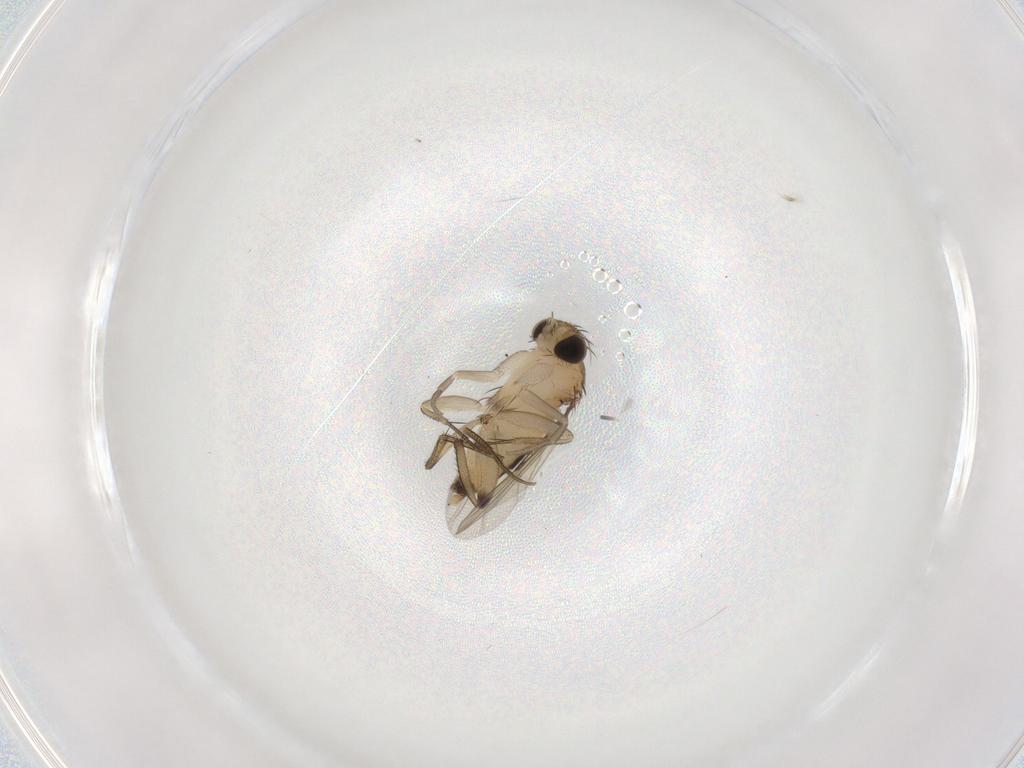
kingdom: Animalia
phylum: Arthropoda
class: Insecta
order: Diptera
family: Phoridae
